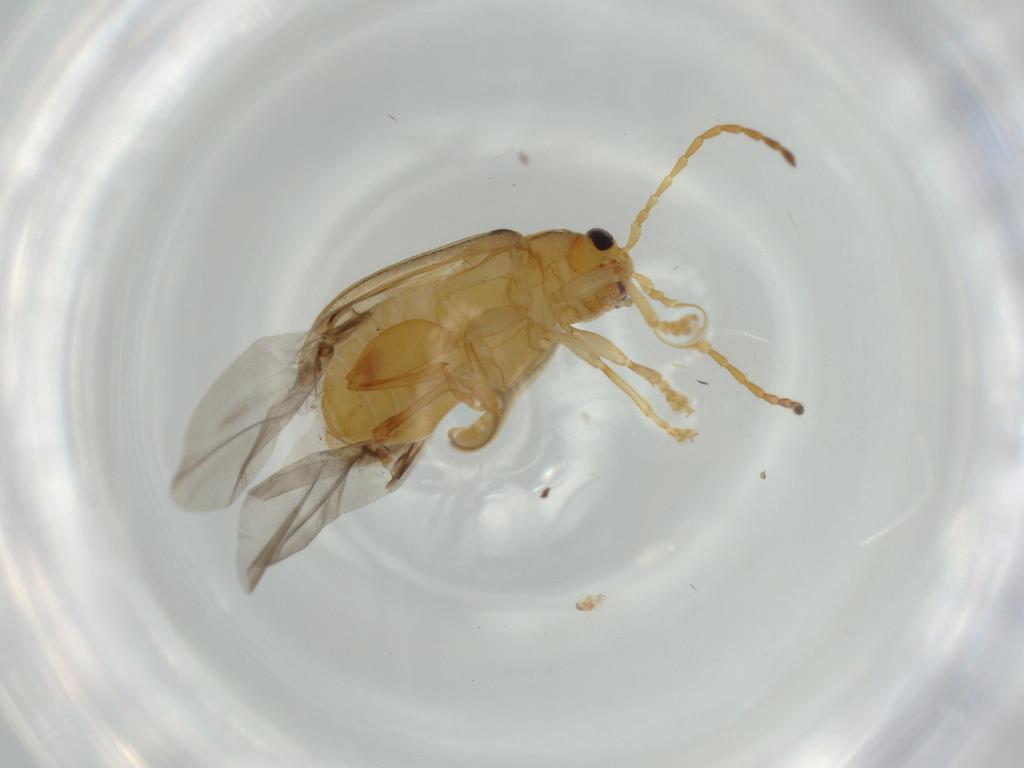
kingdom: Animalia
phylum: Arthropoda
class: Insecta
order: Coleoptera
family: Chrysomelidae
